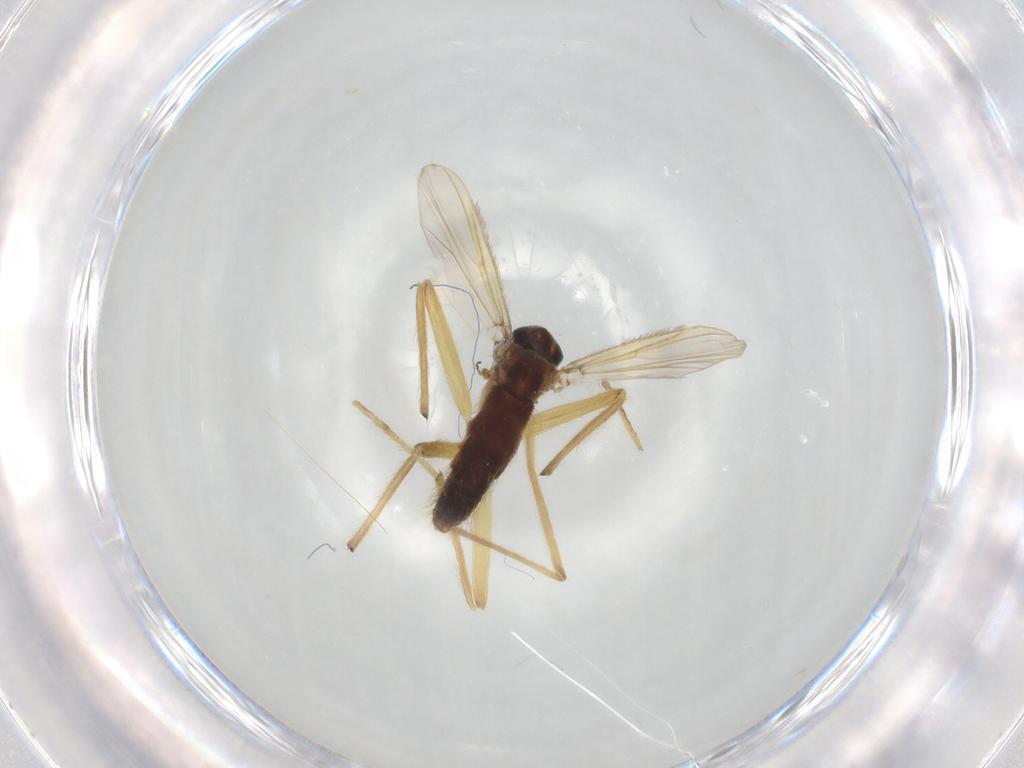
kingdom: Animalia
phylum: Arthropoda
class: Insecta
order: Diptera
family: Chironomidae
